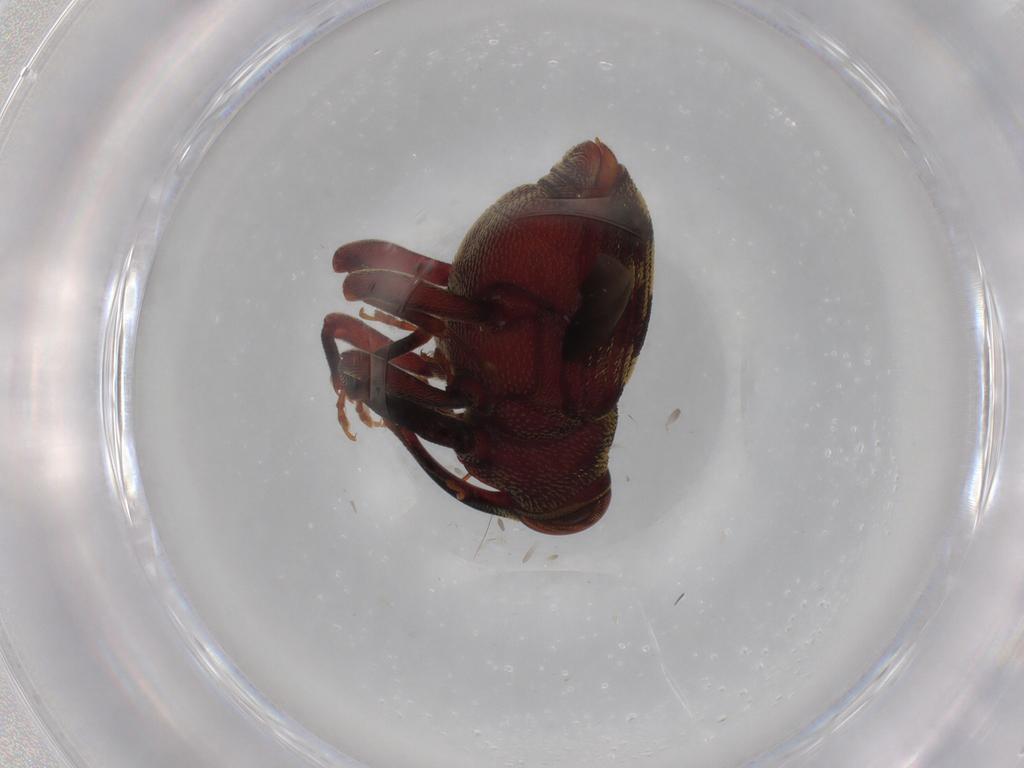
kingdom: Animalia
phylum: Arthropoda
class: Insecta
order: Coleoptera
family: Curculionidae
